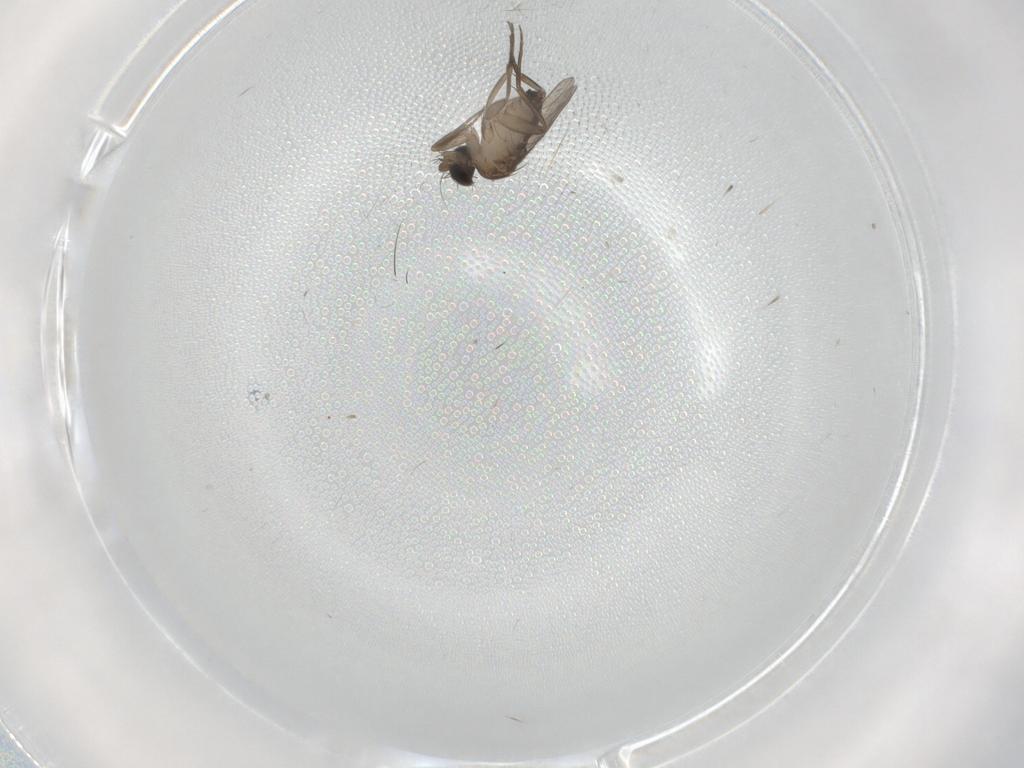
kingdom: Animalia
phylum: Arthropoda
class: Insecta
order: Diptera
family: Phoridae
